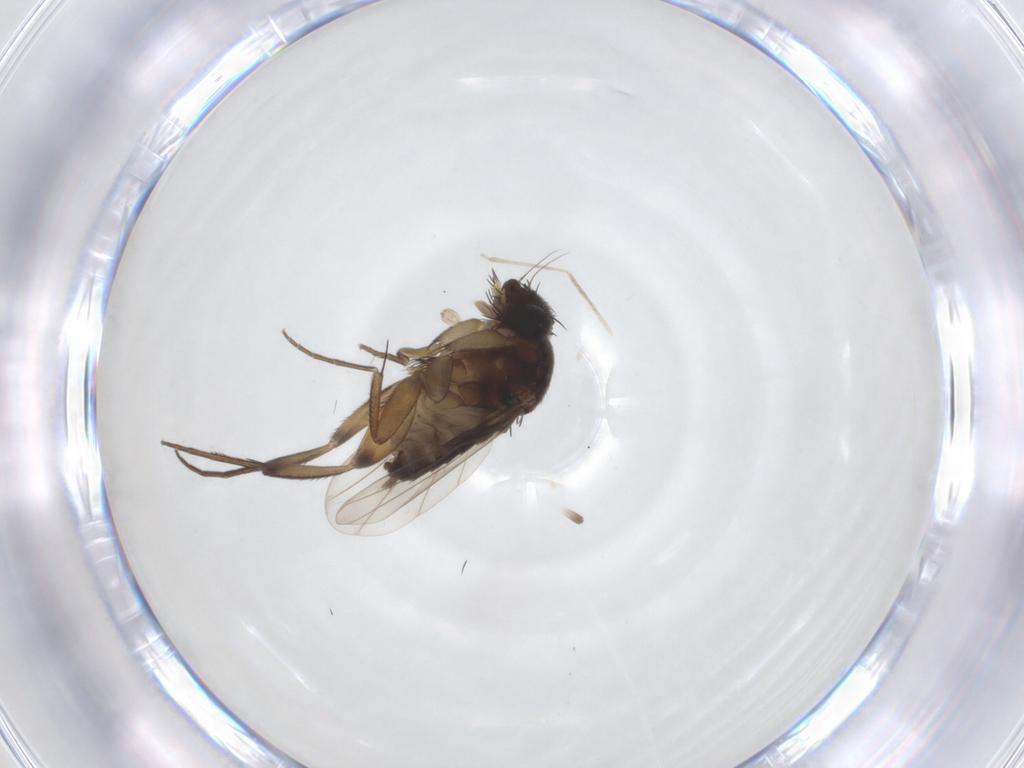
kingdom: Animalia
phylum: Arthropoda
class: Insecta
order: Diptera
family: Phoridae
